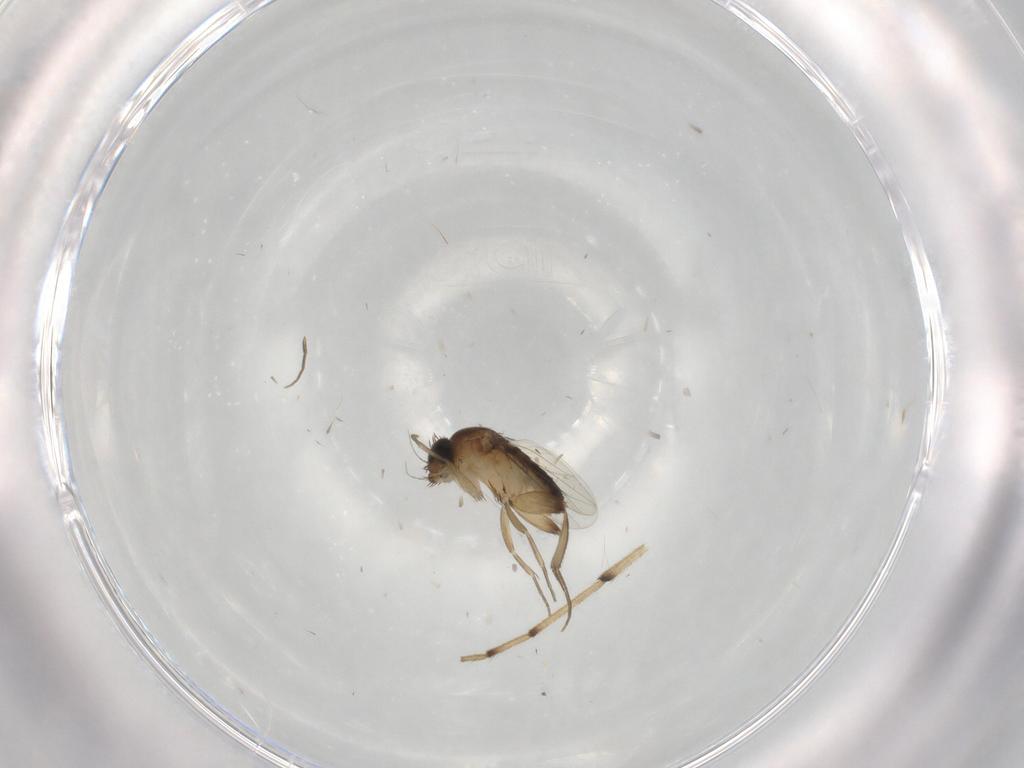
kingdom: Animalia
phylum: Arthropoda
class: Insecta
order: Diptera
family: Phoridae
